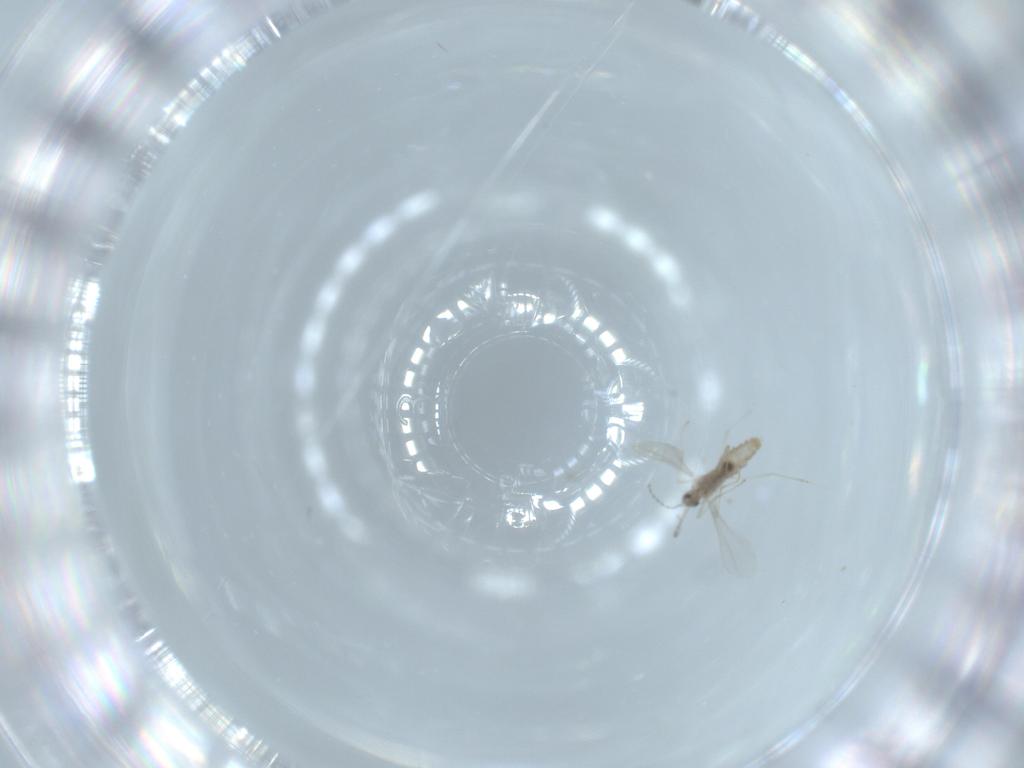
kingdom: Animalia
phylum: Arthropoda
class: Insecta
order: Diptera
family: Cecidomyiidae
